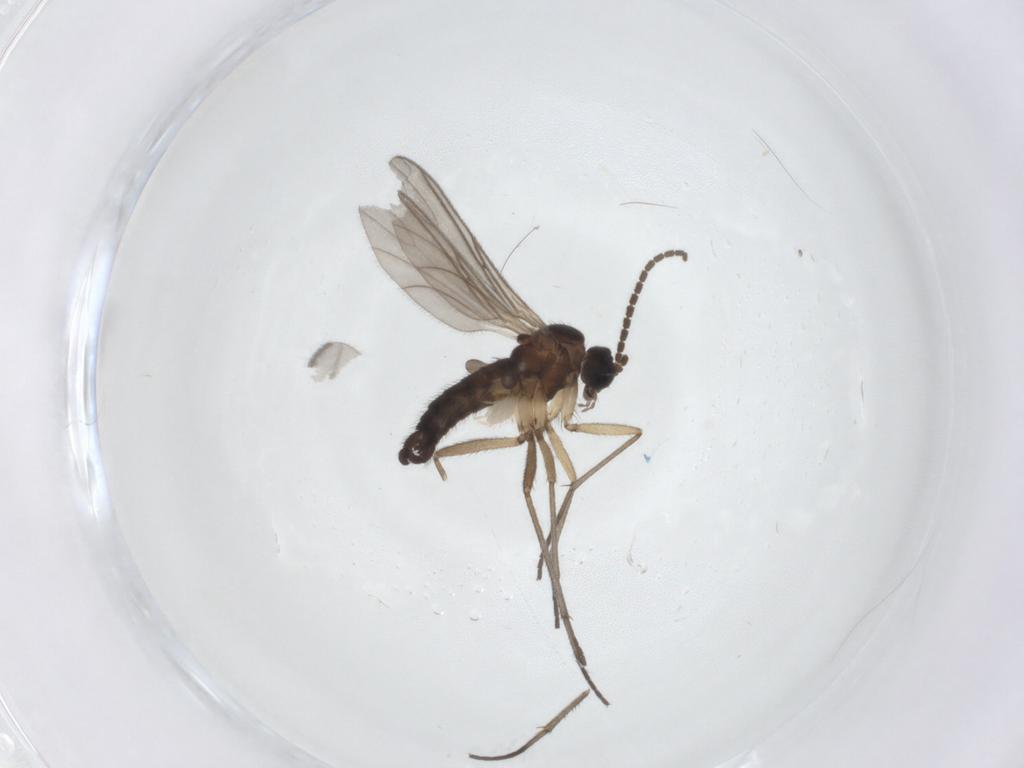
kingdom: Animalia
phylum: Arthropoda
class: Insecta
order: Diptera
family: Sciaridae
